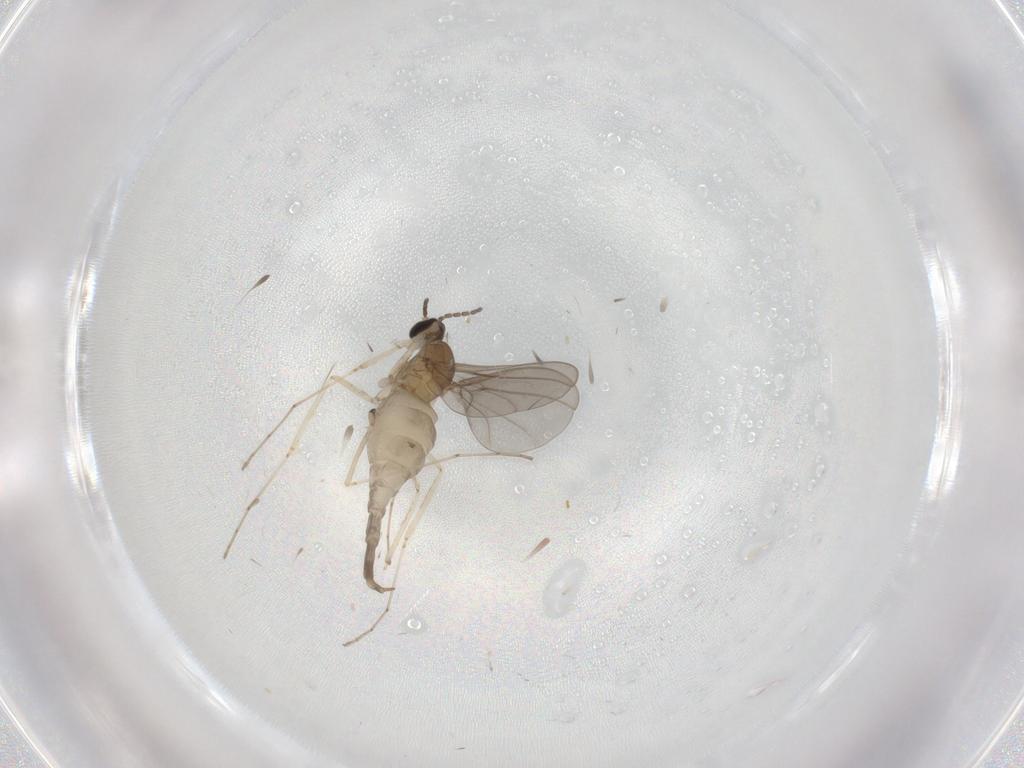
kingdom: Animalia
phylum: Arthropoda
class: Insecta
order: Diptera
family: Cecidomyiidae
